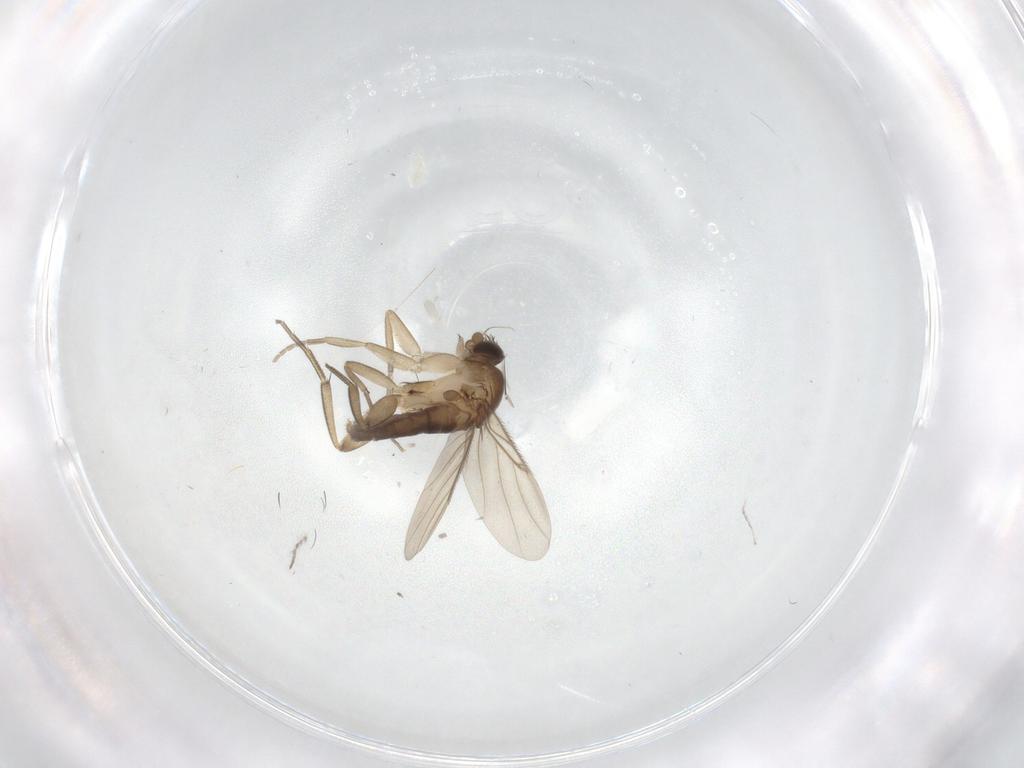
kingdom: Animalia
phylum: Arthropoda
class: Insecta
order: Diptera
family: Phoridae
